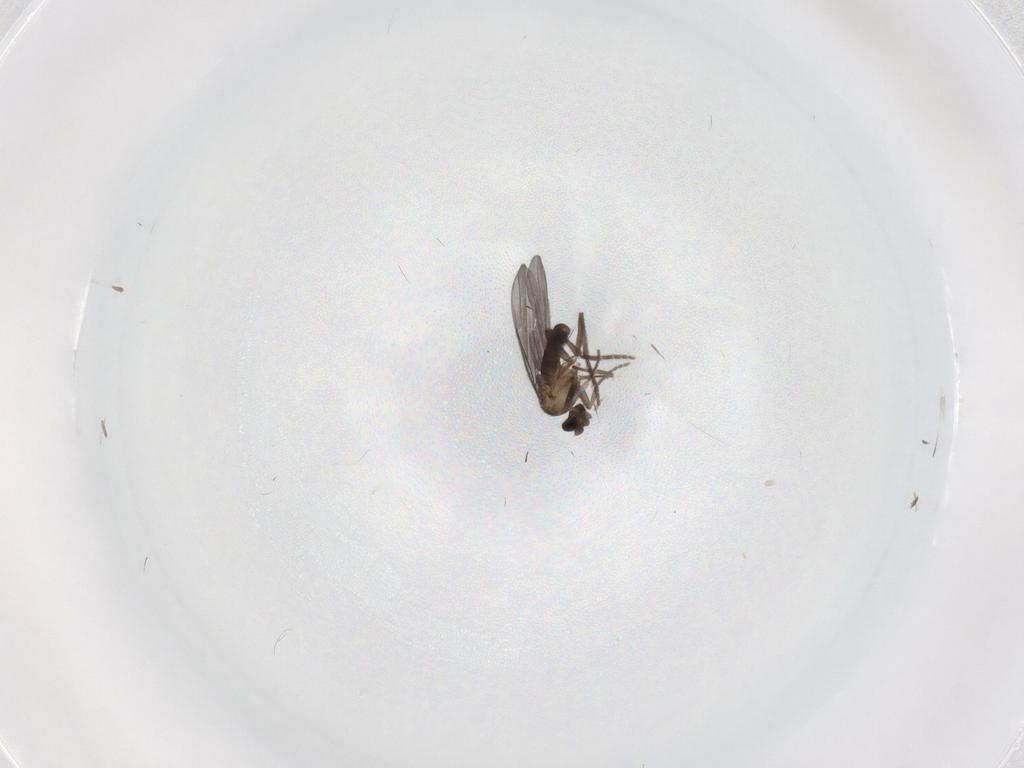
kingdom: Animalia
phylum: Arthropoda
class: Insecta
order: Diptera
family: Phoridae
